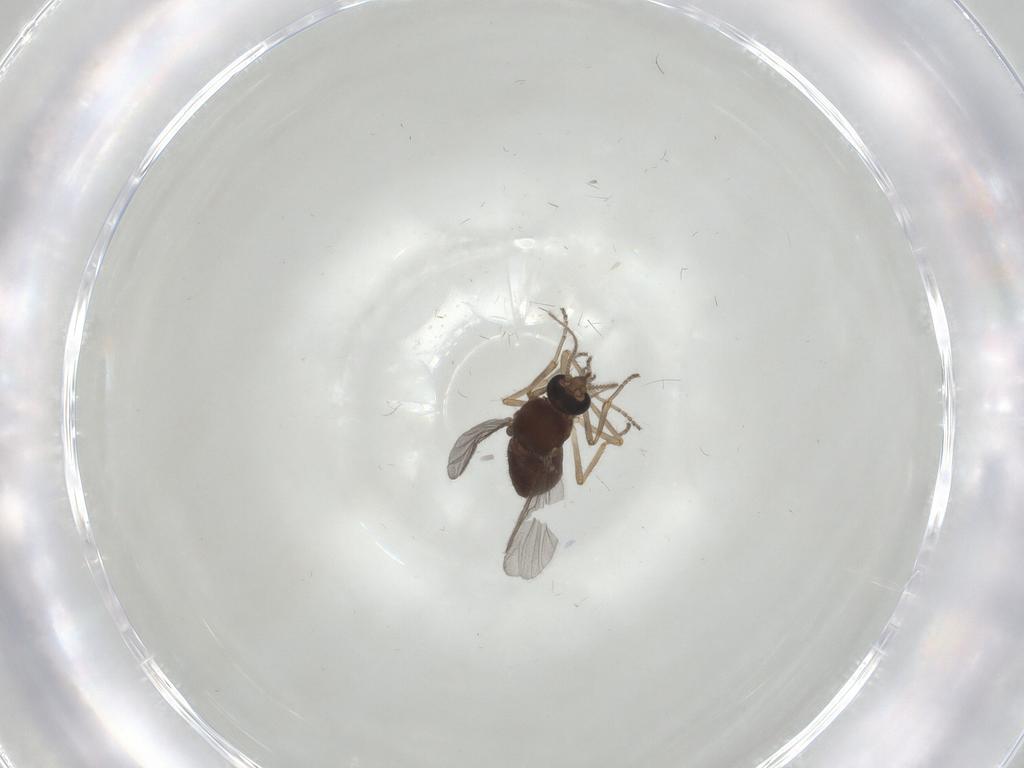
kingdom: Animalia
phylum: Arthropoda
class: Insecta
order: Diptera
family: Ceratopogonidae
